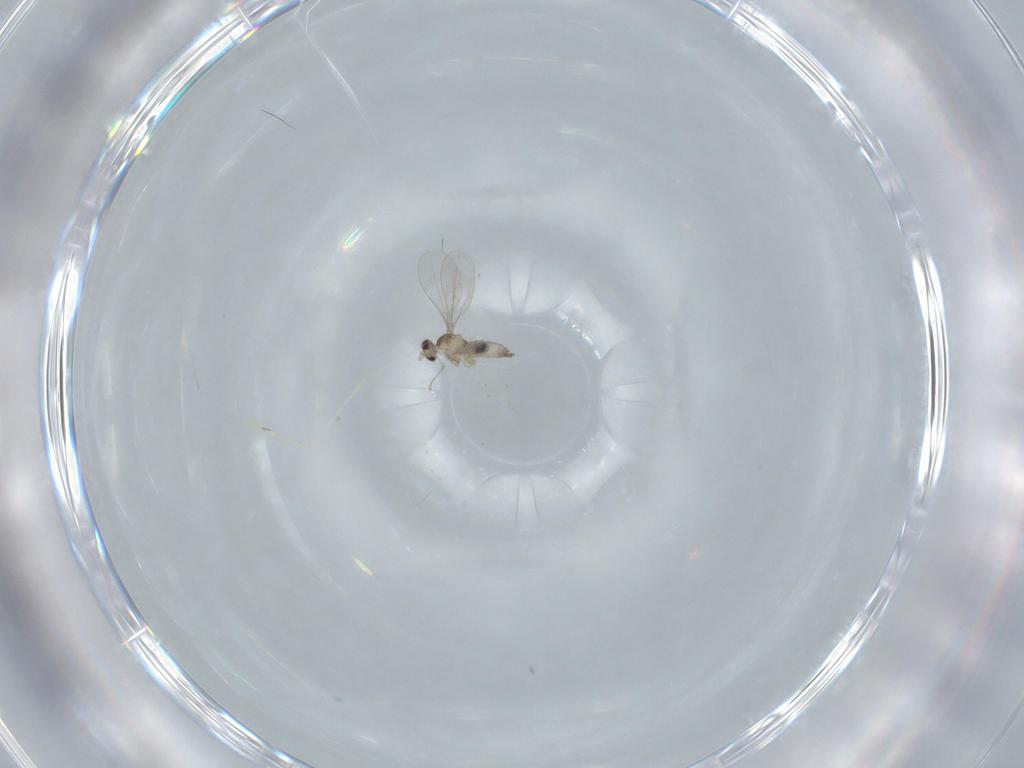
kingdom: Animalia
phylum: Arthropoda
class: Insecta
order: Diptera
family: Cecidomyiidae
